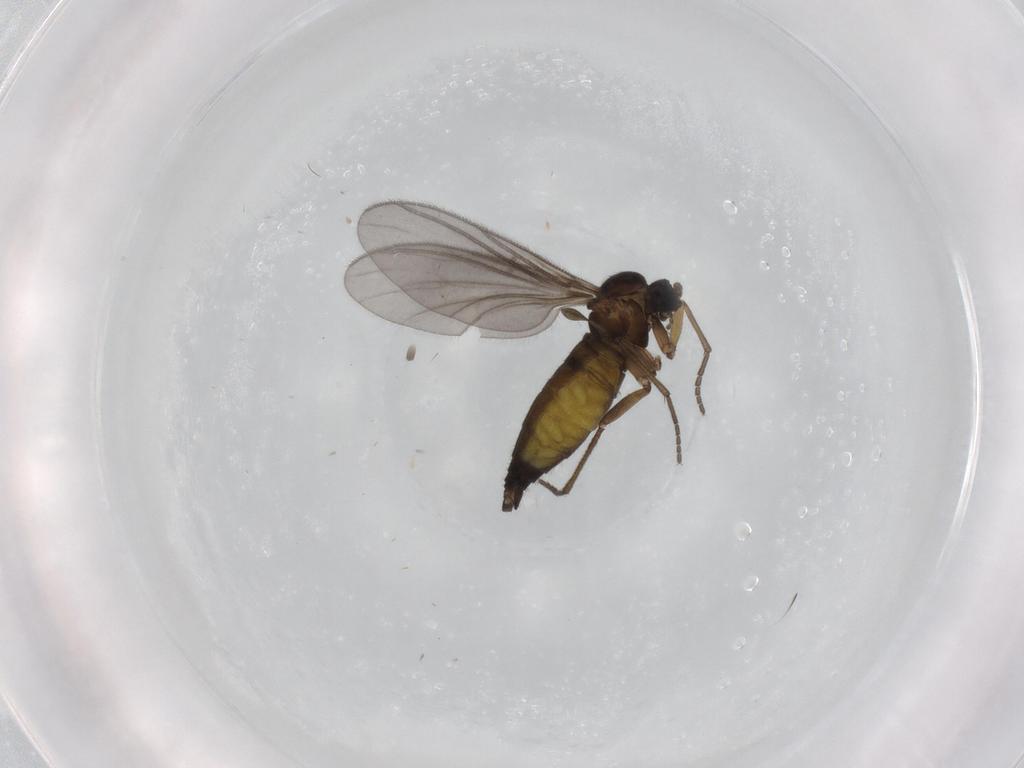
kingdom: Animalia
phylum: Arthropoda
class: Insecta
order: Diptera
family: Sciaridae
